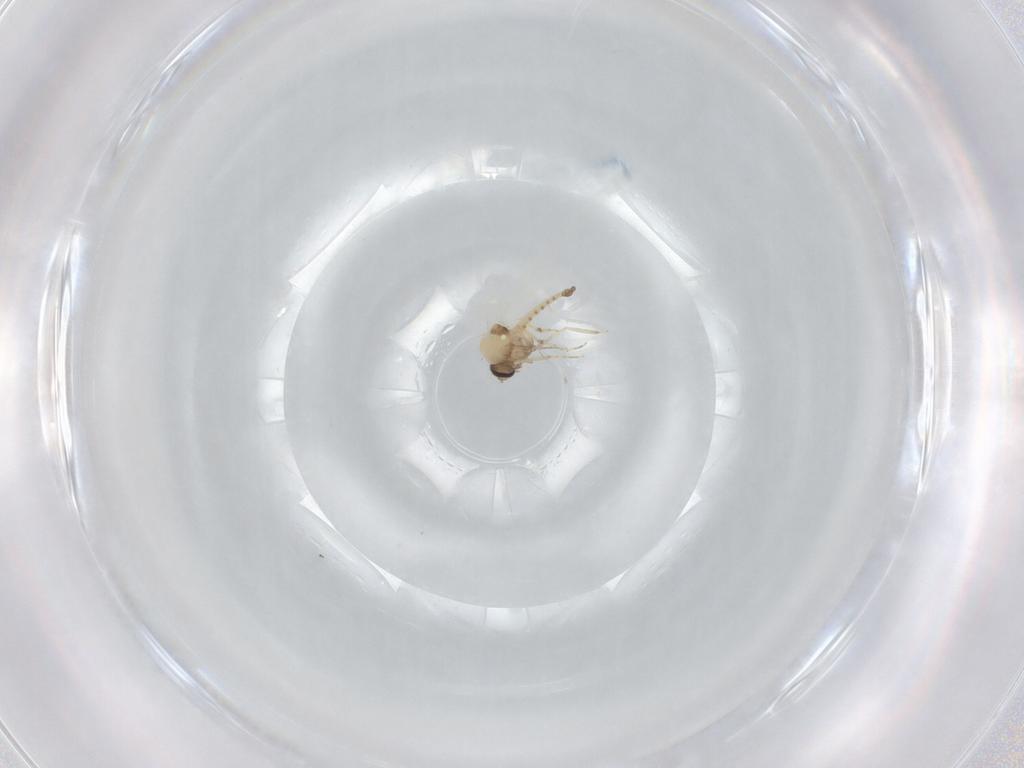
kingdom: Animalia
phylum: Arthropoda
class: Insecta
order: Diptera
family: Ceratopogonidae
